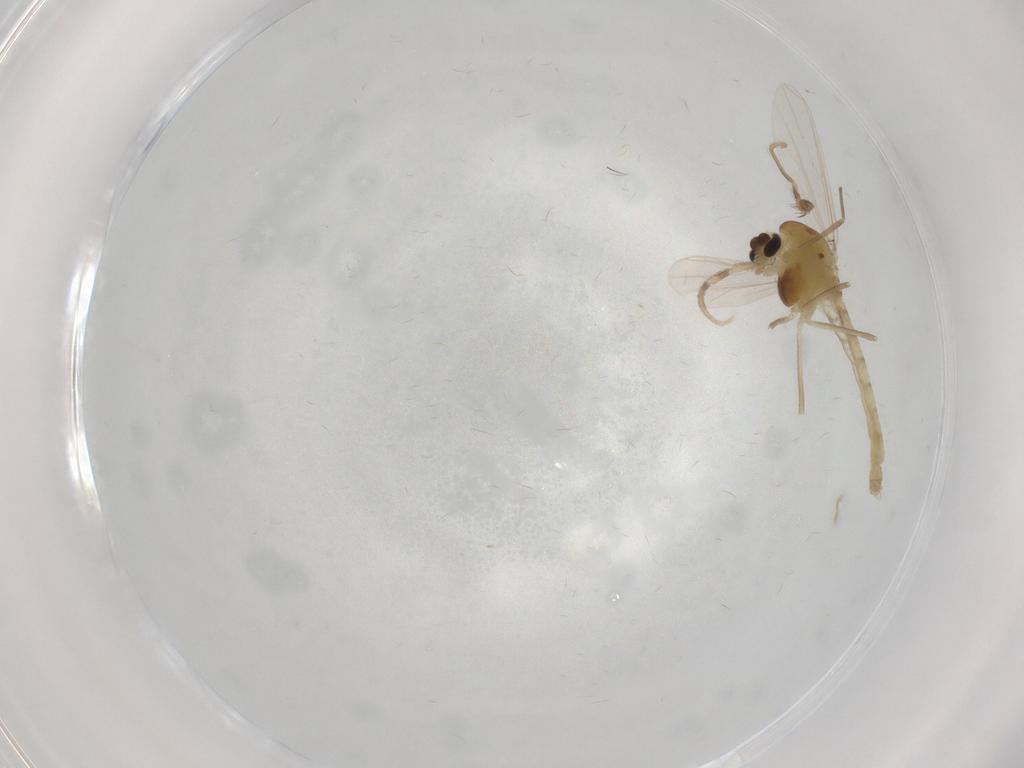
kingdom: Animalia
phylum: Arthropoda
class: Insecta
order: Diptera
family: Chironomidae
